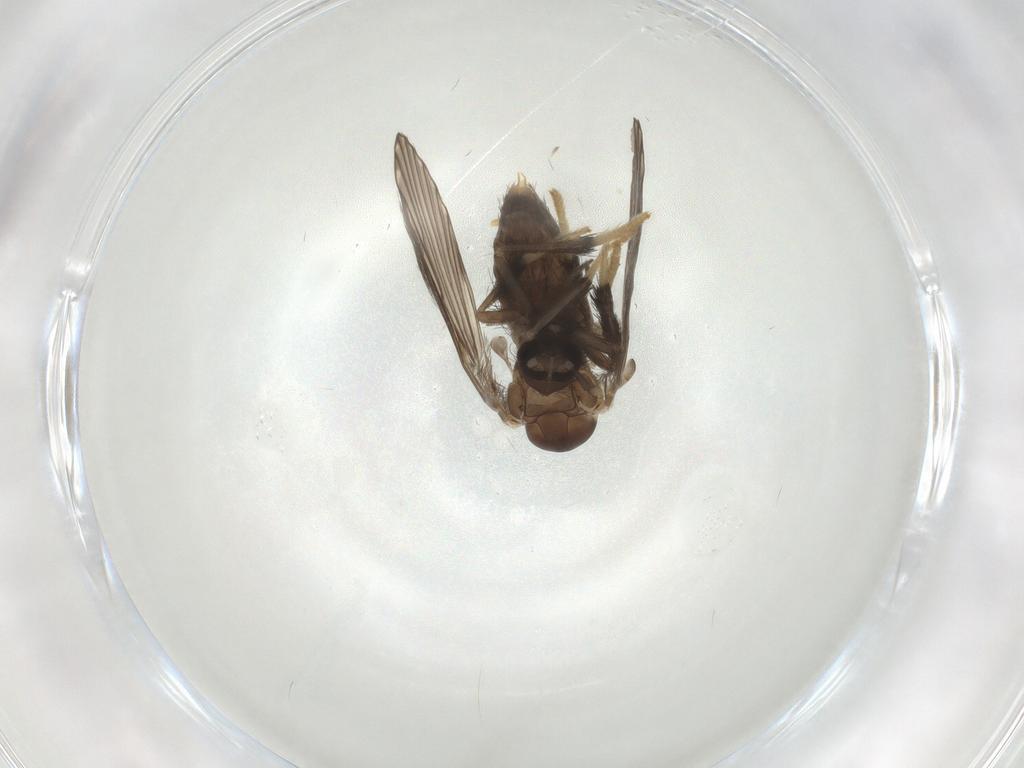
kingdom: Animalia
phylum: Arthropoda
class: Insecta
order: Diptera
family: Psychodidae
